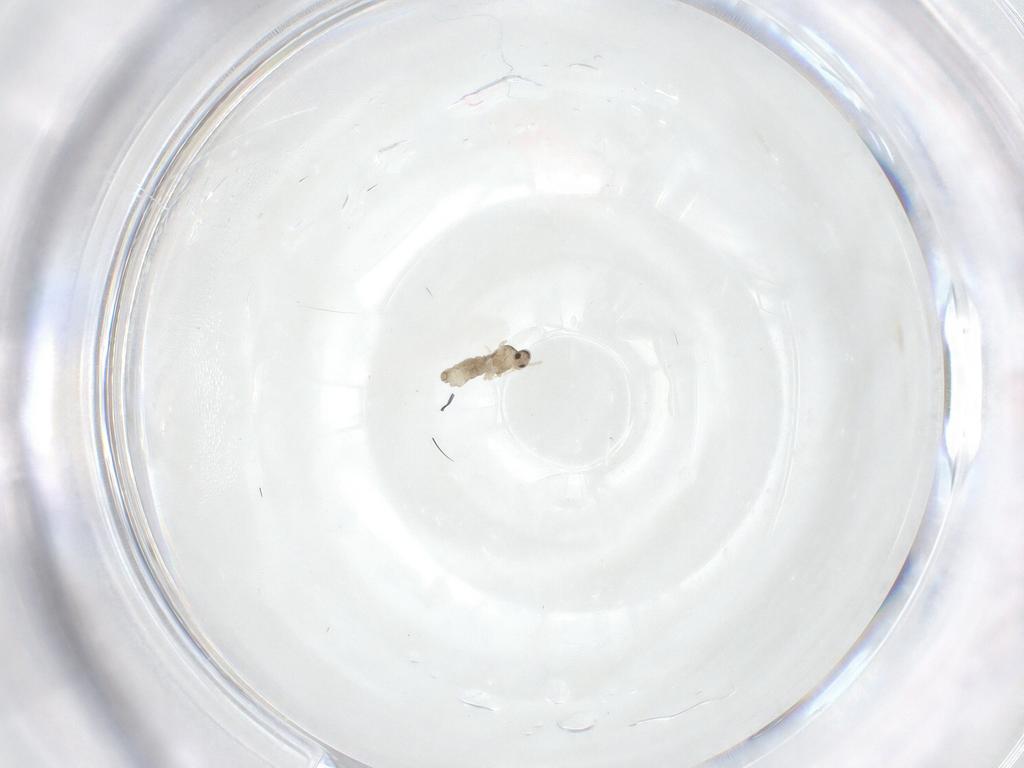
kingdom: Animalia
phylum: Arthropoda
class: Insecta
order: Diptera
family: Cecidomyiidae
